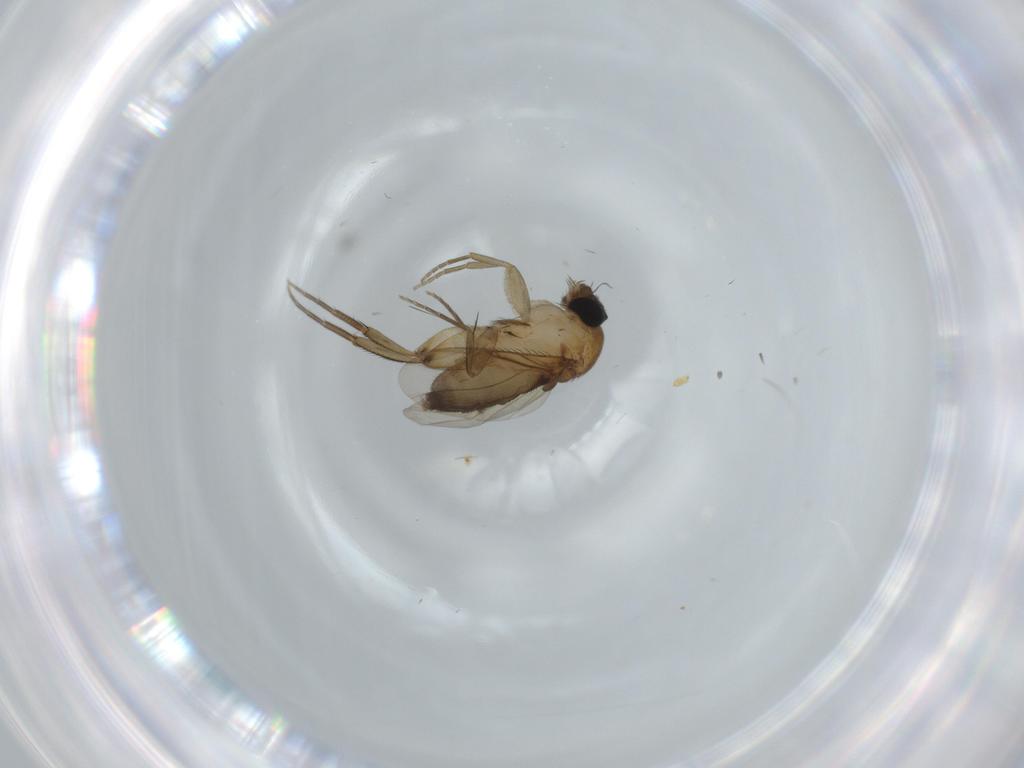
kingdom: Animalia
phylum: Arthropoda
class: Insecta
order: Diptera
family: Phoridae
